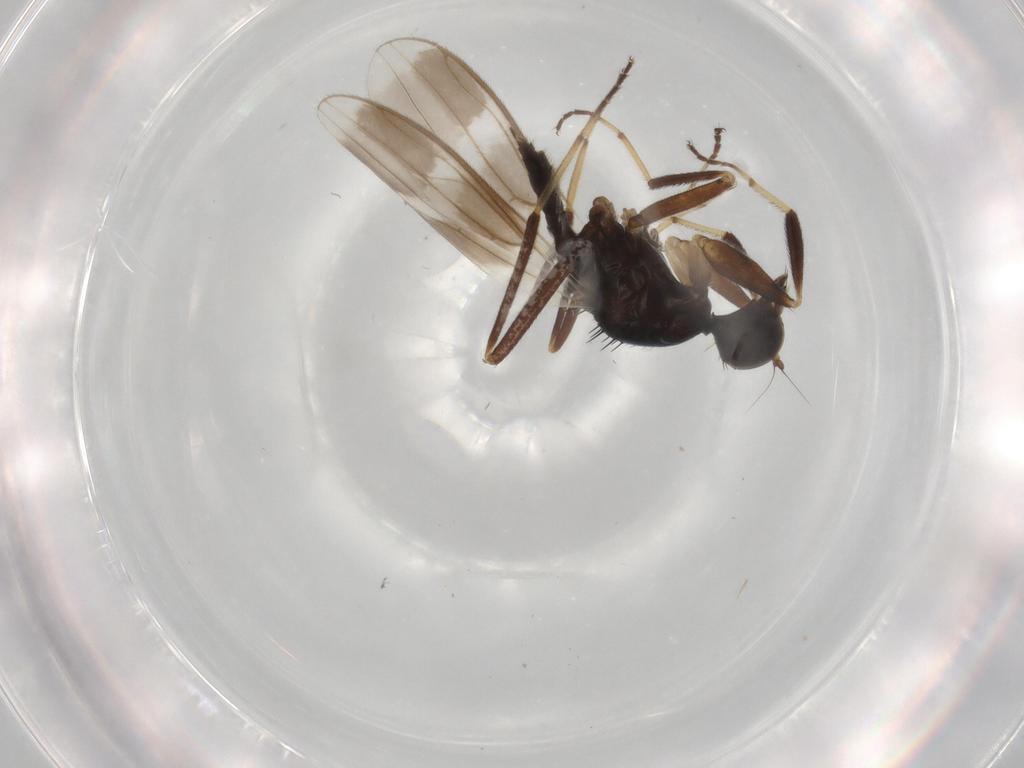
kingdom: Animalia
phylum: Arthropoda
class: Insecta
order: Diptera
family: Hybotidae
